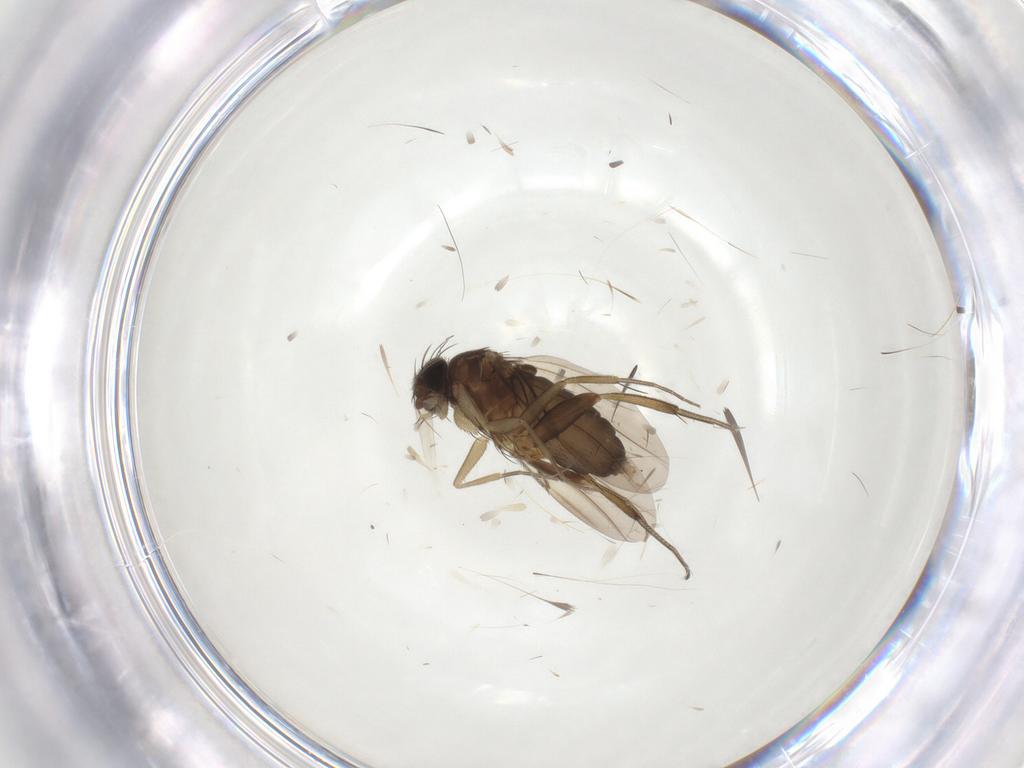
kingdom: Animalia
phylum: Arthropoda
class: Insecta
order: Diptera
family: Phoridae
